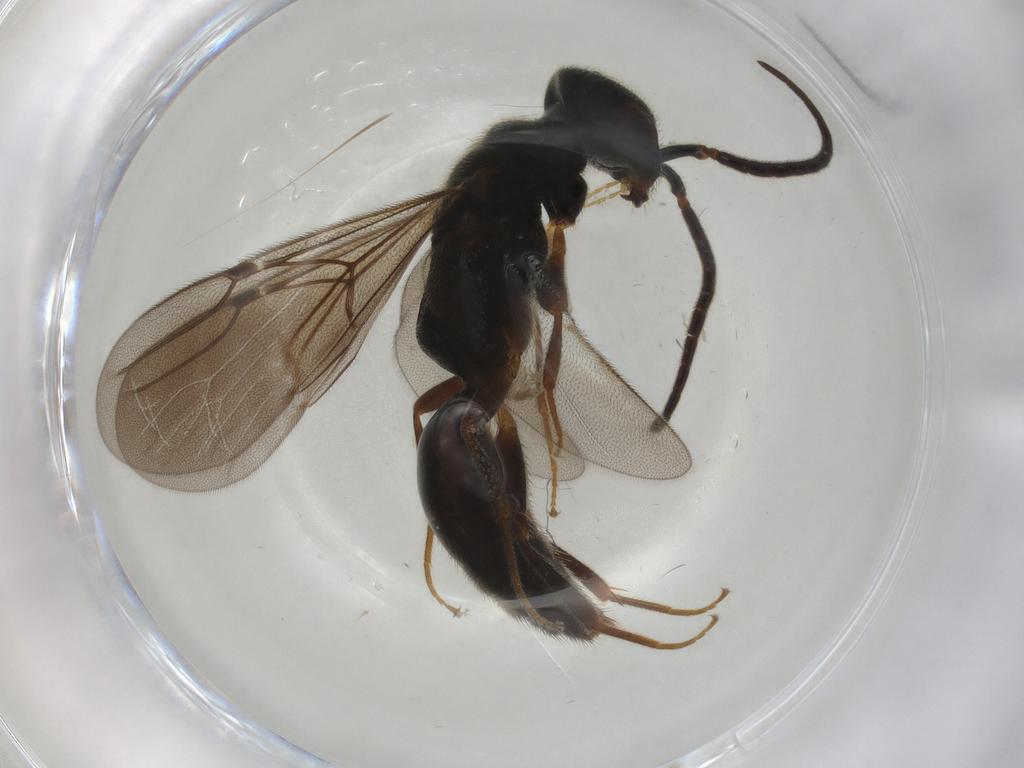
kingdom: Animalia
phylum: Arthropoda
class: Insecta
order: Hymenoptera
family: Bethylidae
